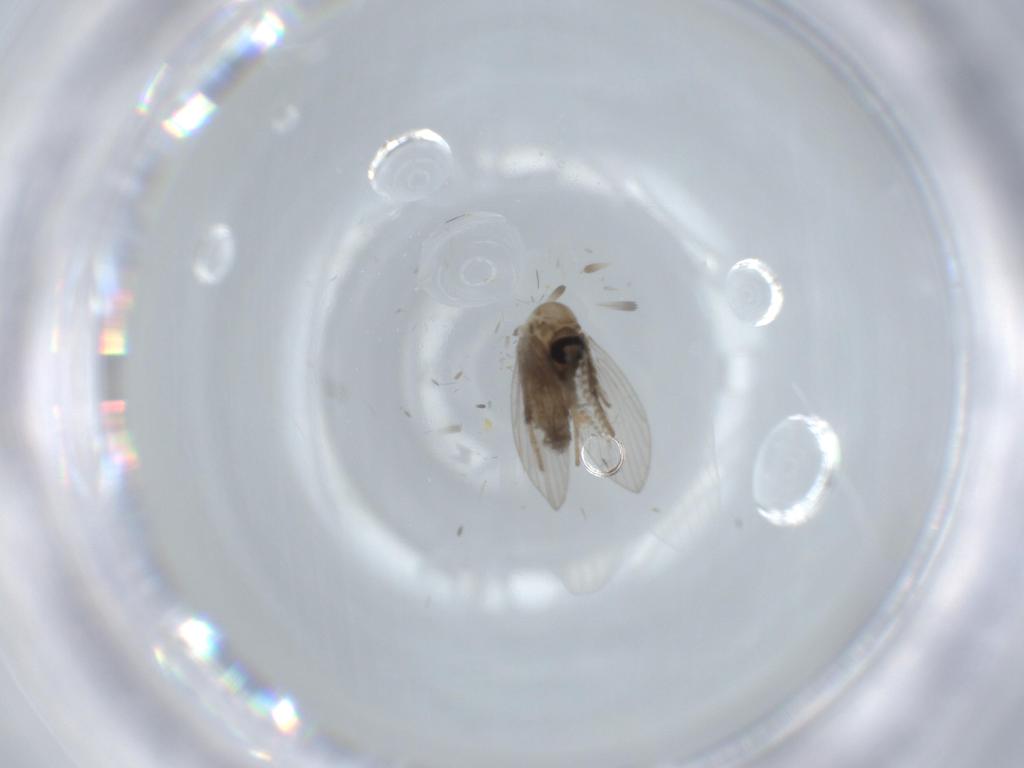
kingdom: Animalia
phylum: Arthropoda
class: Insecta
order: Diptera
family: Psychodidae
